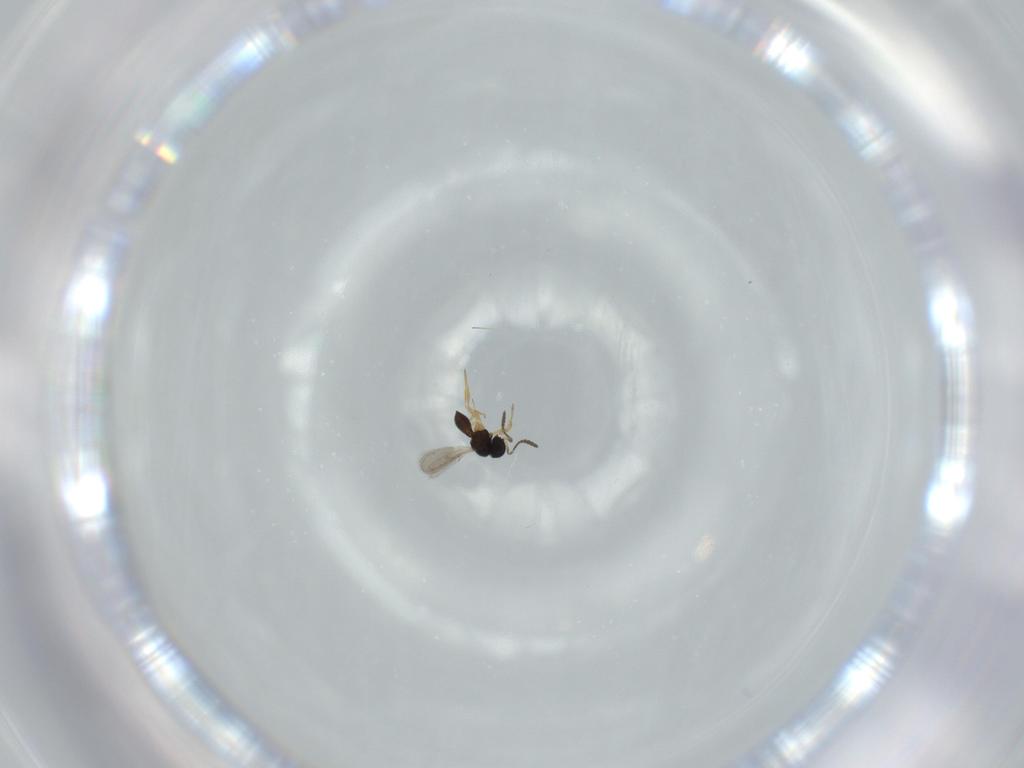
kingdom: Animalia
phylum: Arthropoda
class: Insecta
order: Hymenoptera
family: Scelionidae
